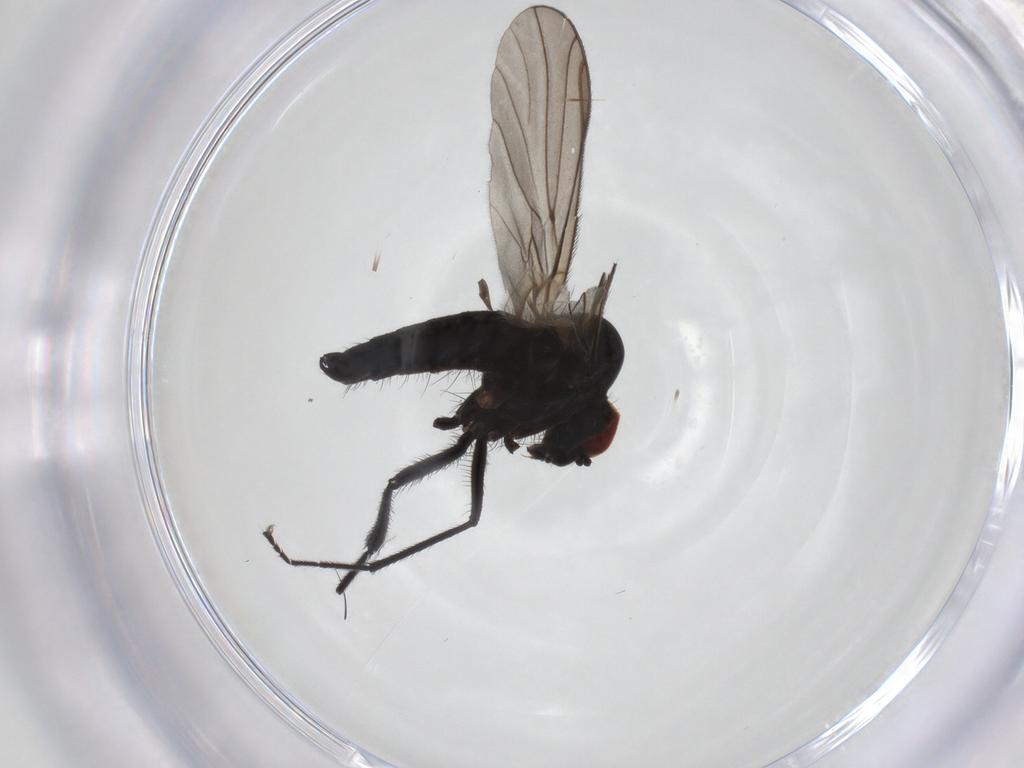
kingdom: Animalia
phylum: Arthropoda
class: Insecta
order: Diptera
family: Hybotidae
